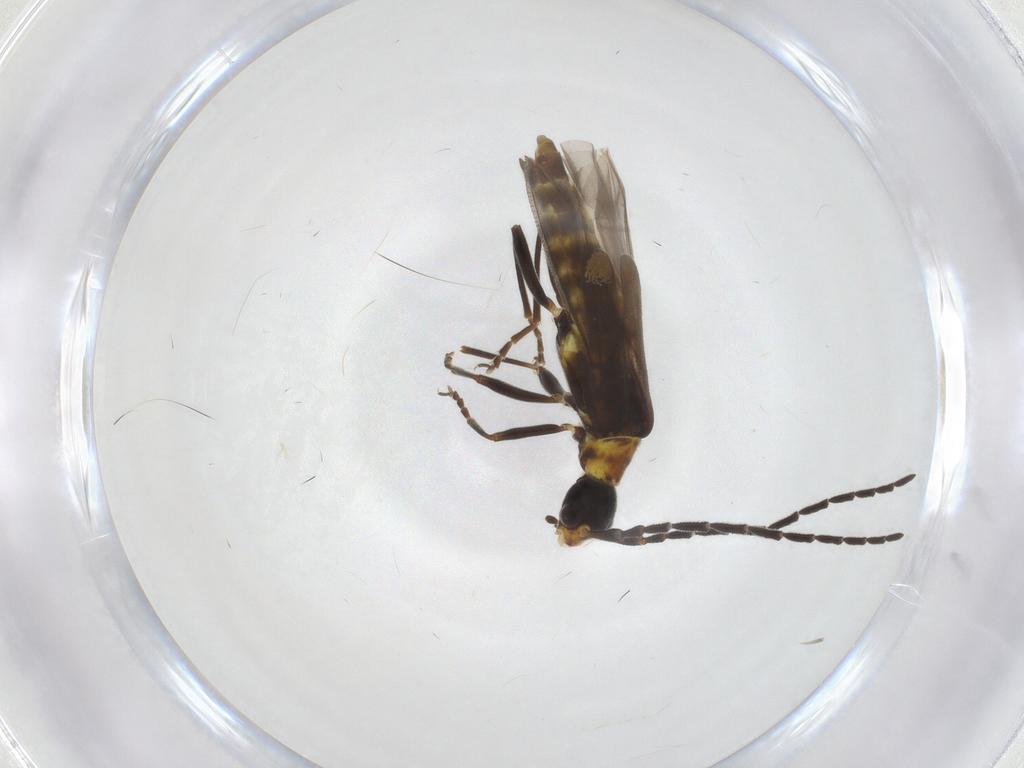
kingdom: Animalia
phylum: Arthropoda
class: Insecta
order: Coleoptera
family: Cantharidae
